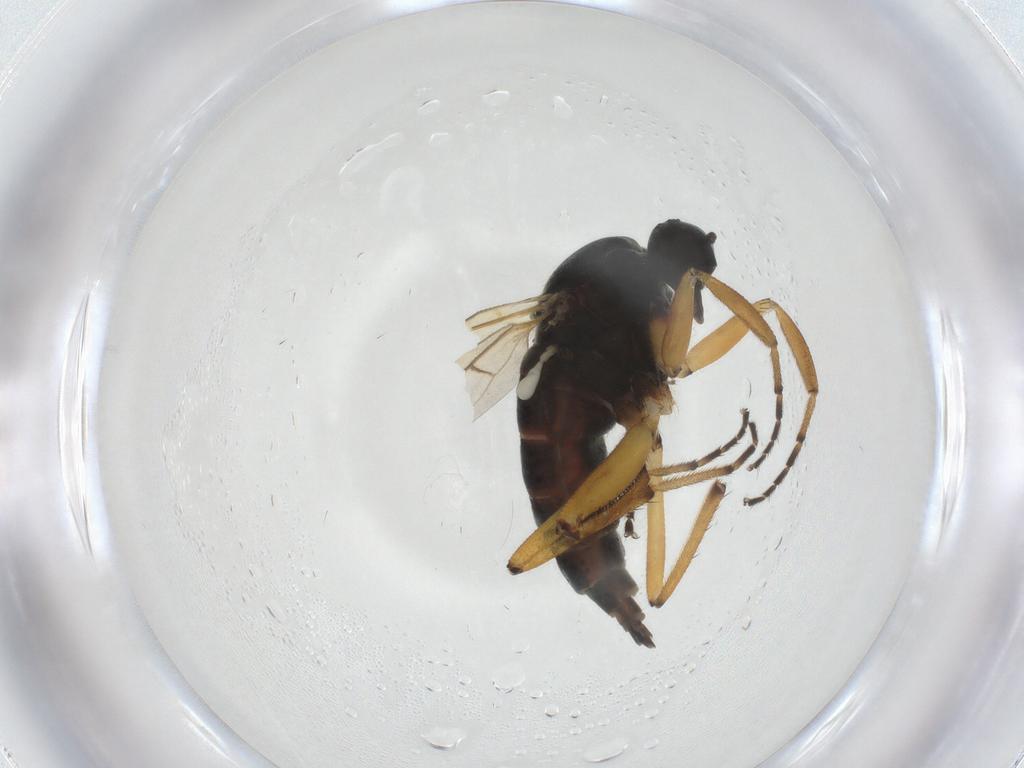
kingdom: Animalia
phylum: Arthropoda
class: Insecta
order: Diptera
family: Hybotidae
